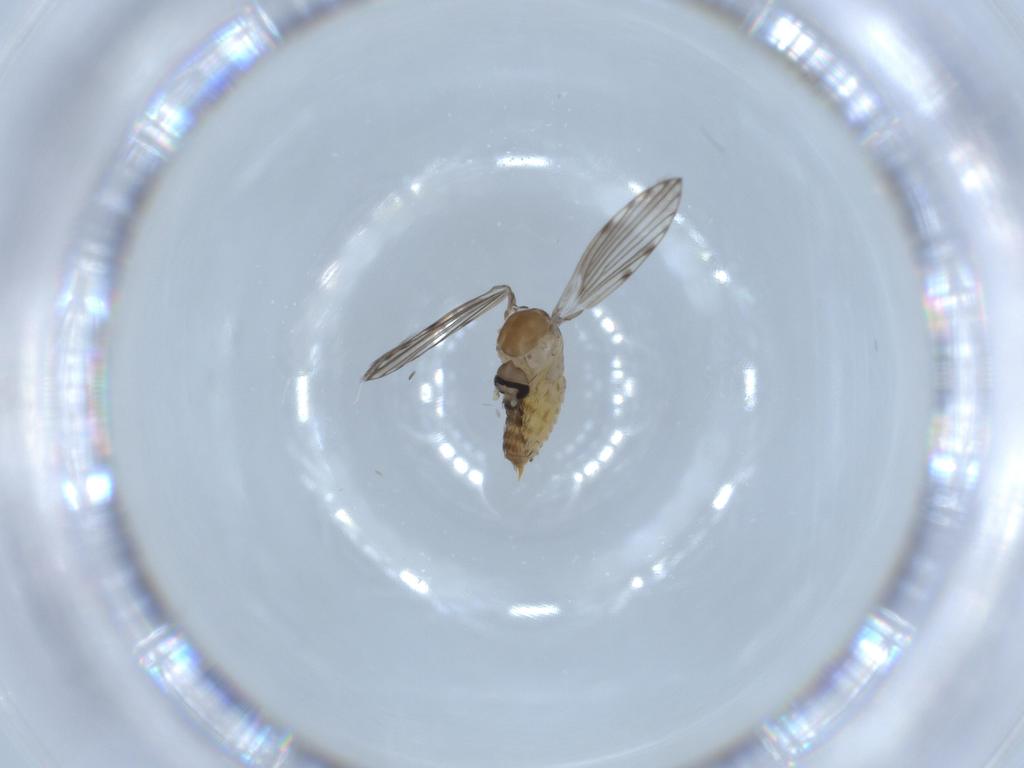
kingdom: Animalia
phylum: Arthropoda
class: Insecta
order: Diptera
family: Psychodidae
